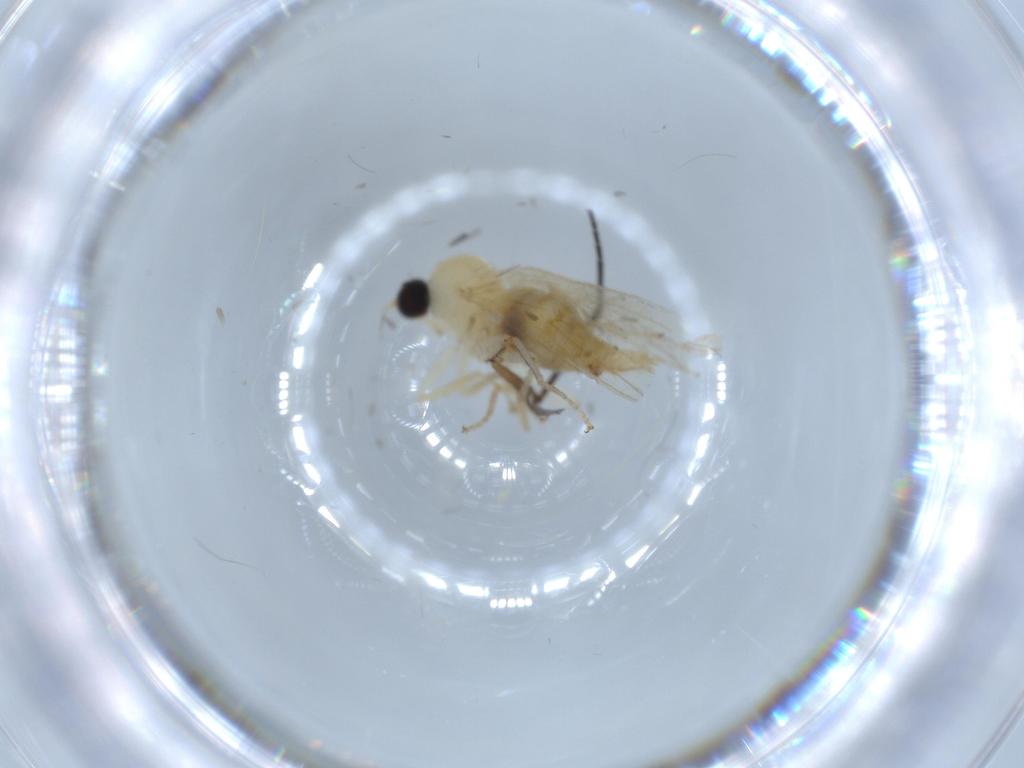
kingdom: Animalia
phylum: Arthropoda
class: Insecta
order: Diptera
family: Hybotidae
